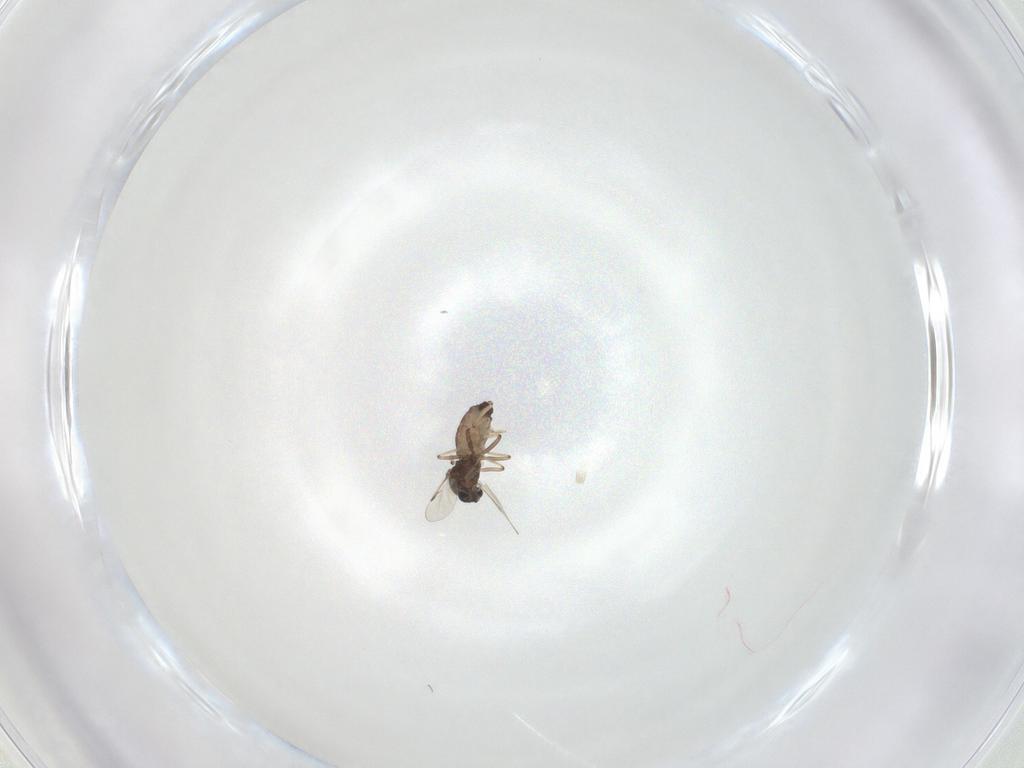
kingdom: Animalia
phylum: Arthropoda
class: Insecta
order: Diptera
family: Ceratopogonidae
